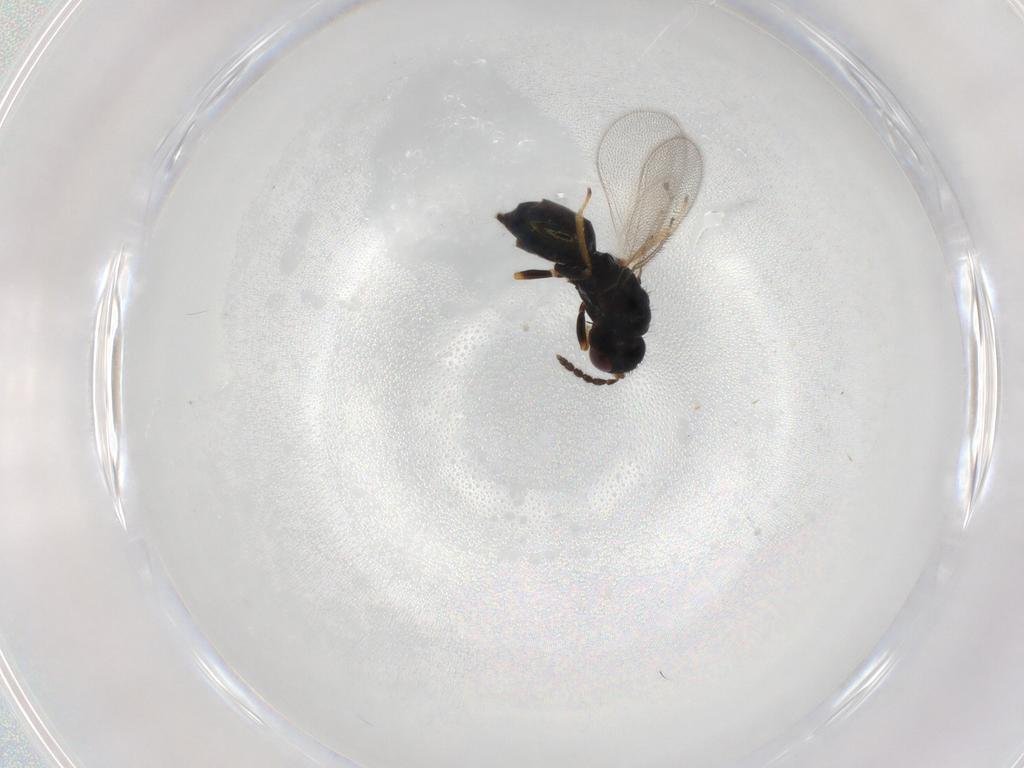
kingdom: Animalia
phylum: Arthropoda
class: Insecta
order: Hymenoptera
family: Eulophidae
